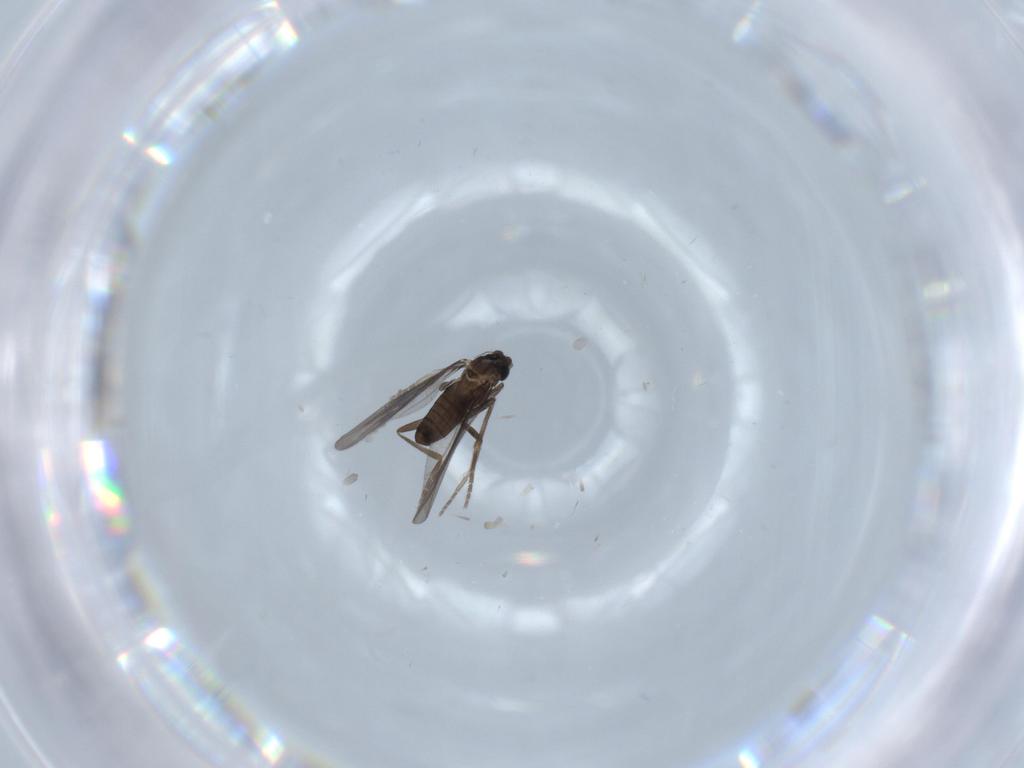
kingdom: Animalia
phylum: Arthropoda
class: Insecta
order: Diptera
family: Phoridae
